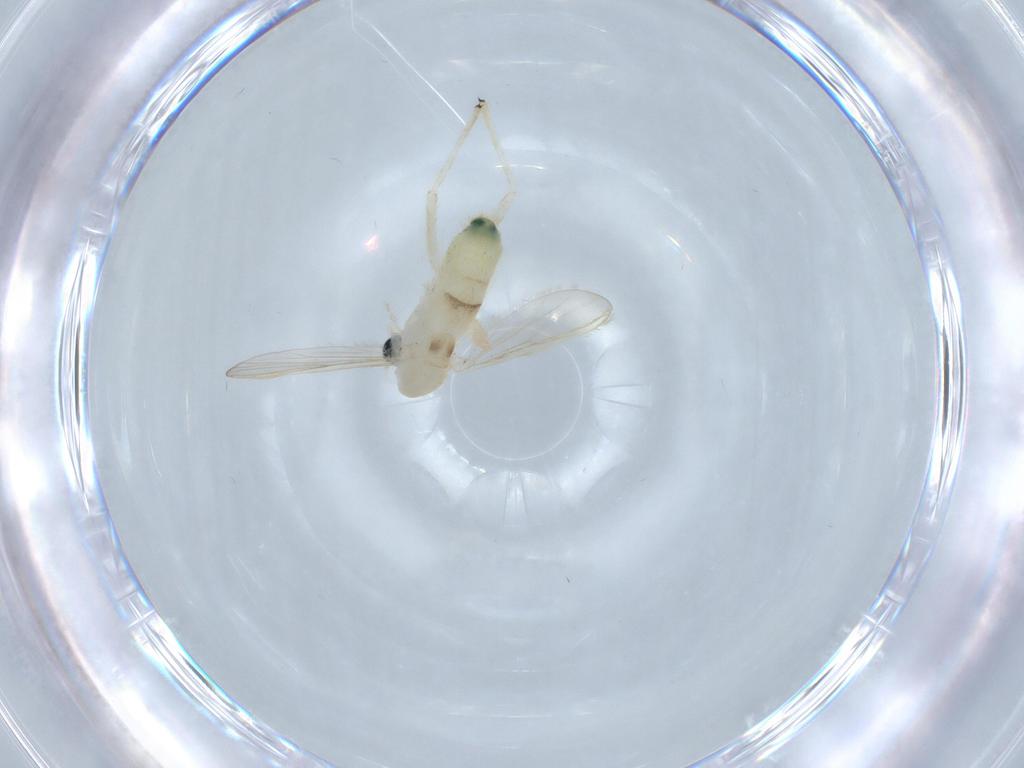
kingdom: Animalia
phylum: Arthropoda
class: Insecta
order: Diptera
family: Chironomidae
